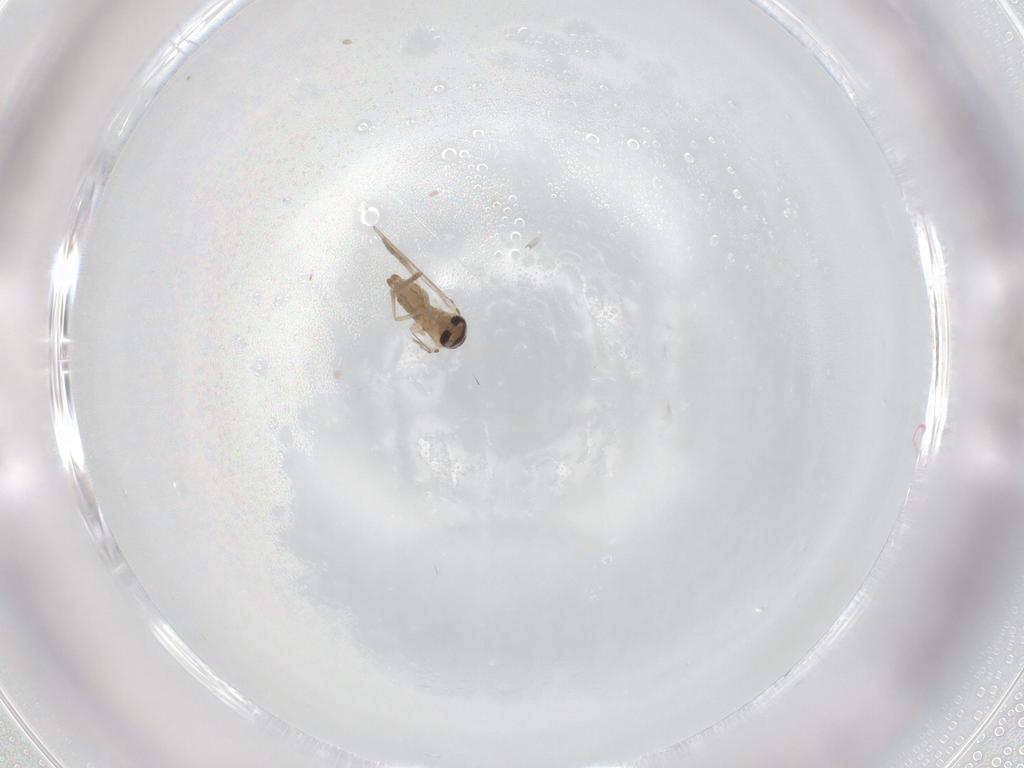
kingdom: Animalia
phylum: Arthropoda
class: Insecta
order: Diptera
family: Psychodidae
